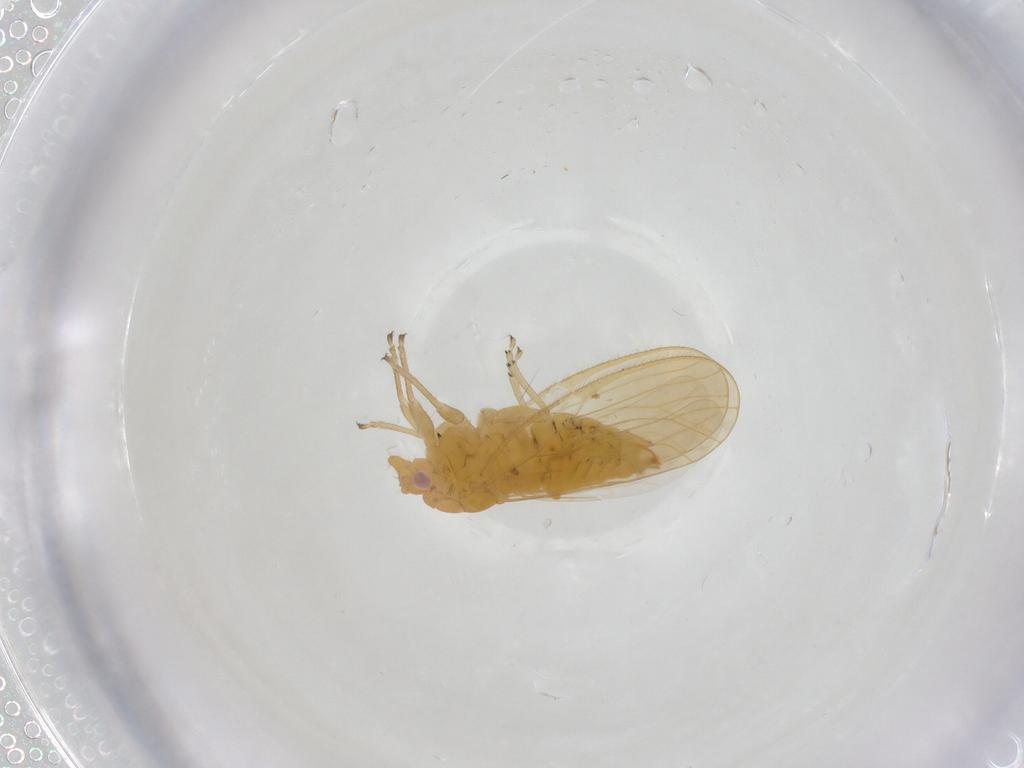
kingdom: Animalia
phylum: Arthropoda
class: Insecta
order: Hemiptera
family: Psyllidae
